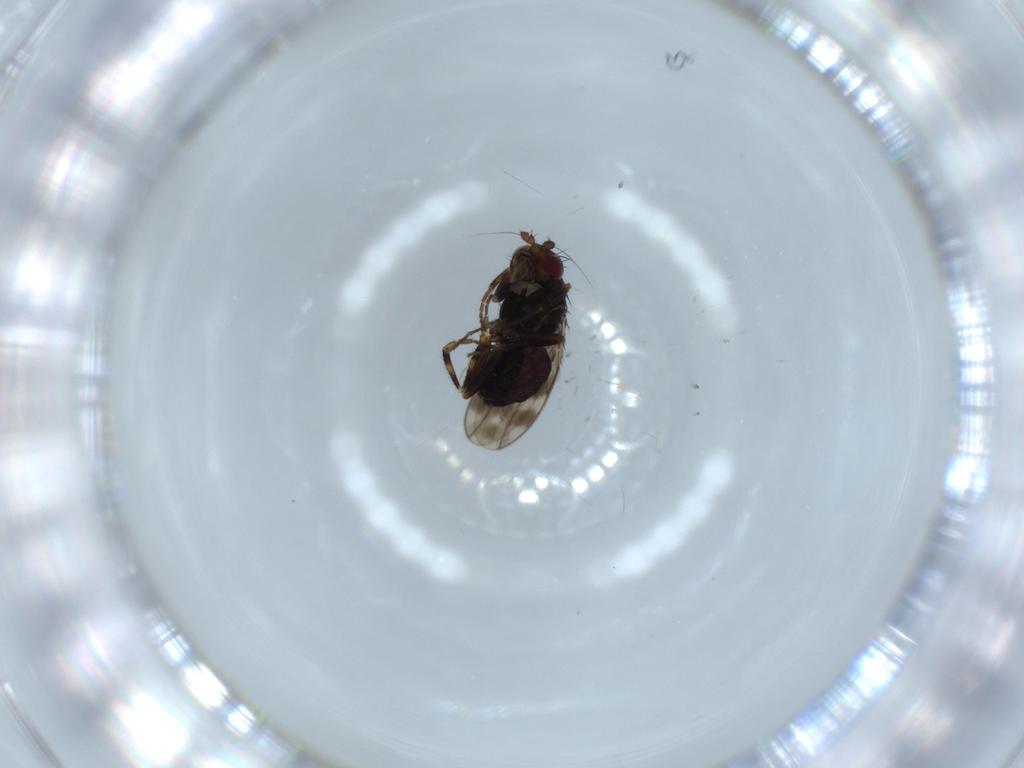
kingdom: Animalia
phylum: Arthropoda
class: Insecta
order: Diptera
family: Sphaeroceridae
